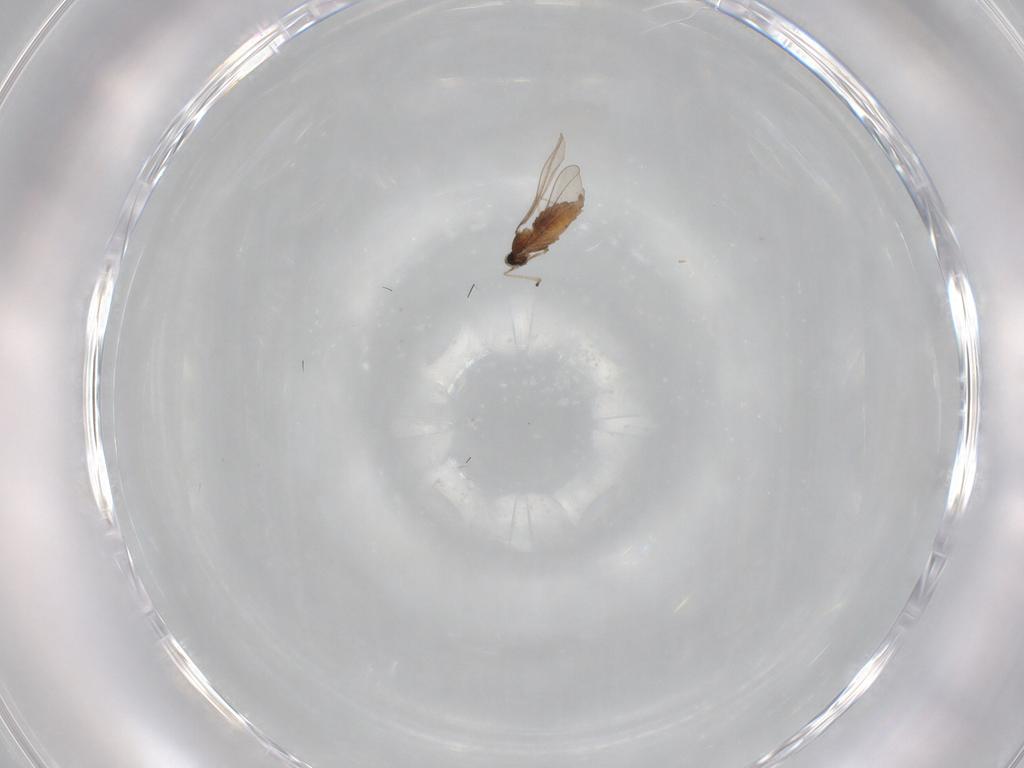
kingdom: Animalia
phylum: Arthropoda
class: Insecta
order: Diptera
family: Cecidomyiidae
